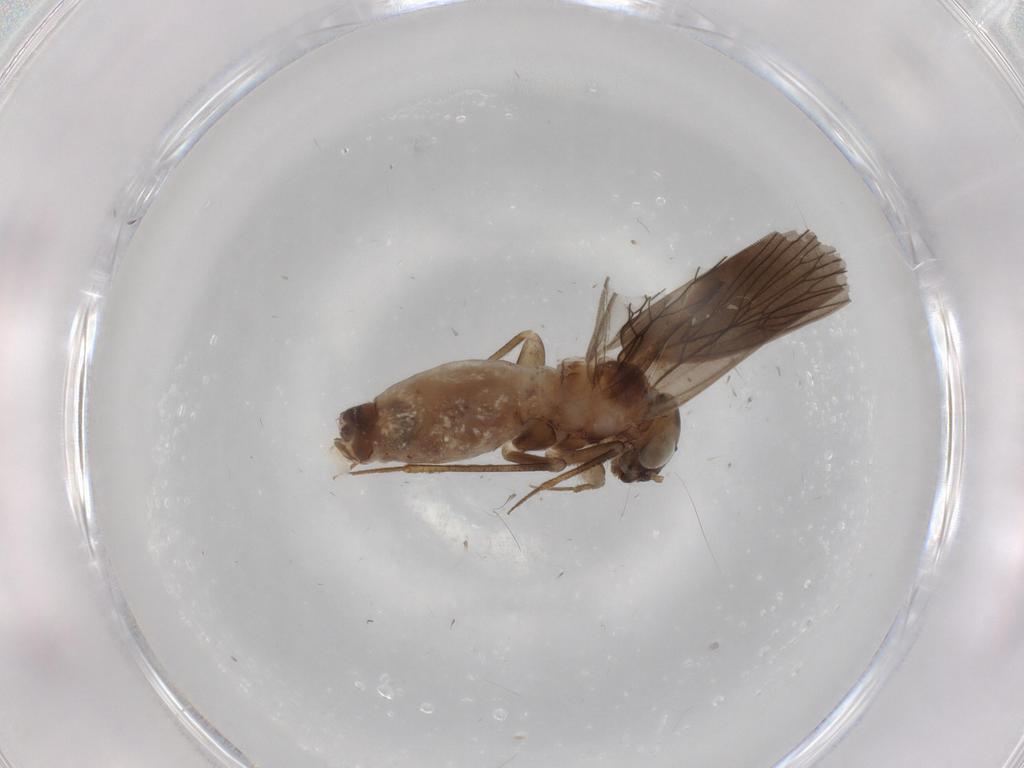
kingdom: Animalia
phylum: Arthropoda
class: Insecta
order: Psocodea
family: Lepidopsocidae
